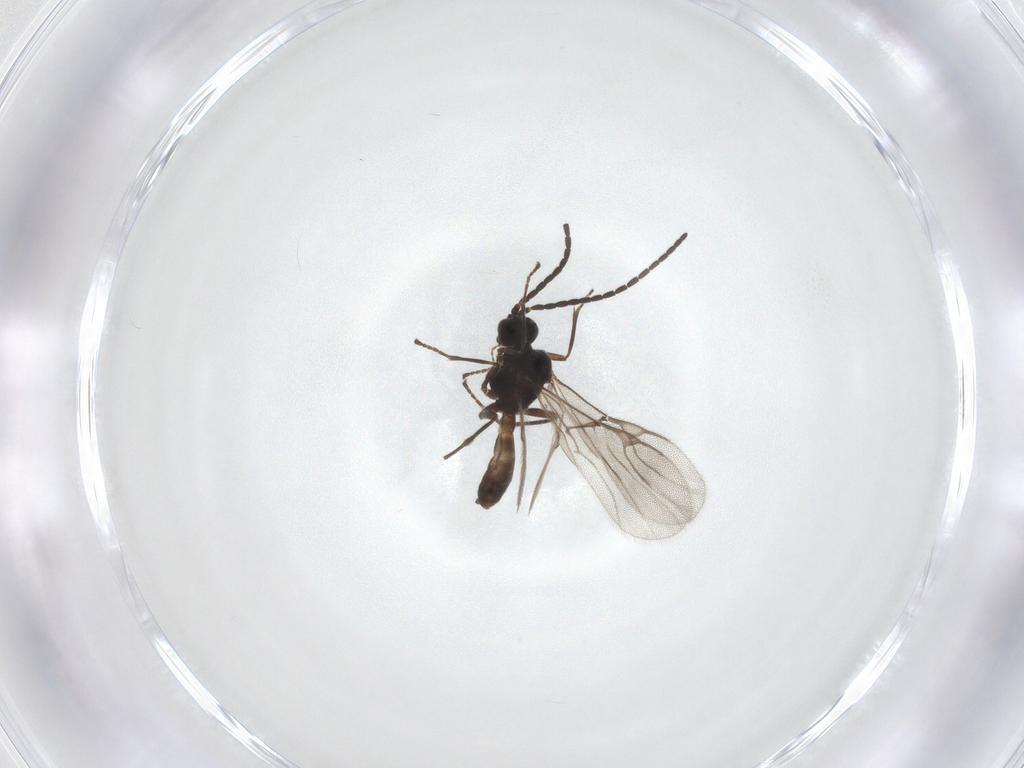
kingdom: Animalia
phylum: Arthropoda
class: Insecta
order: Hymenoptera
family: Braconidae
